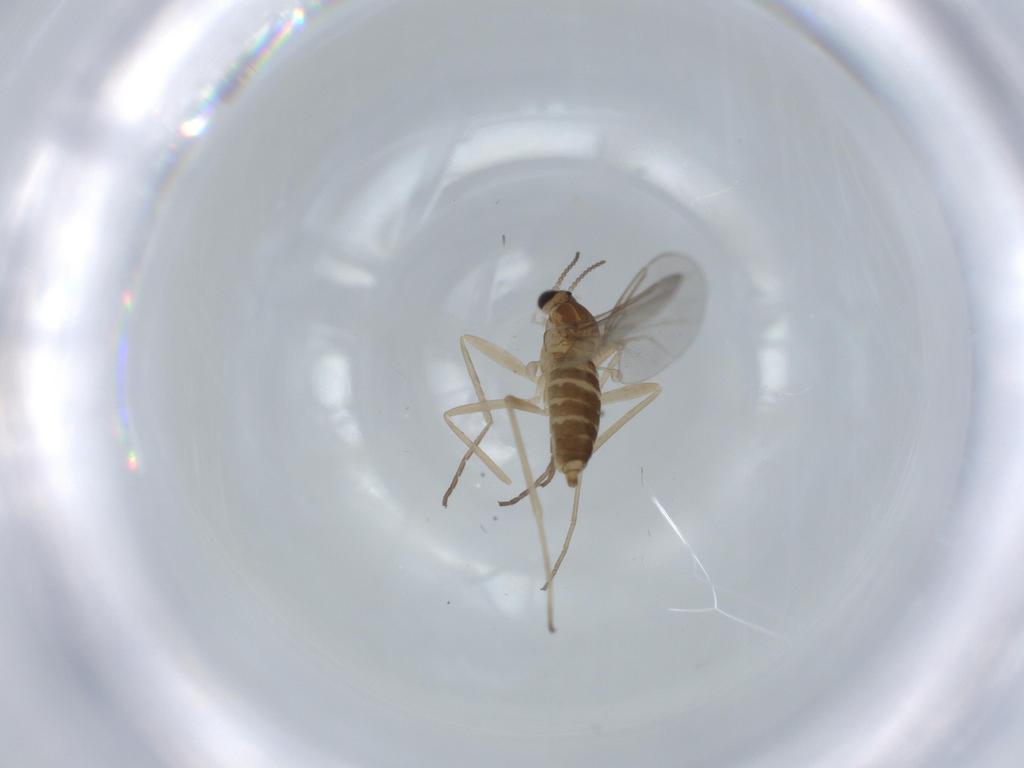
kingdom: Animalia
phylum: Arthropoda
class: Insecta
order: Diptera
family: Cecidomyiidae
